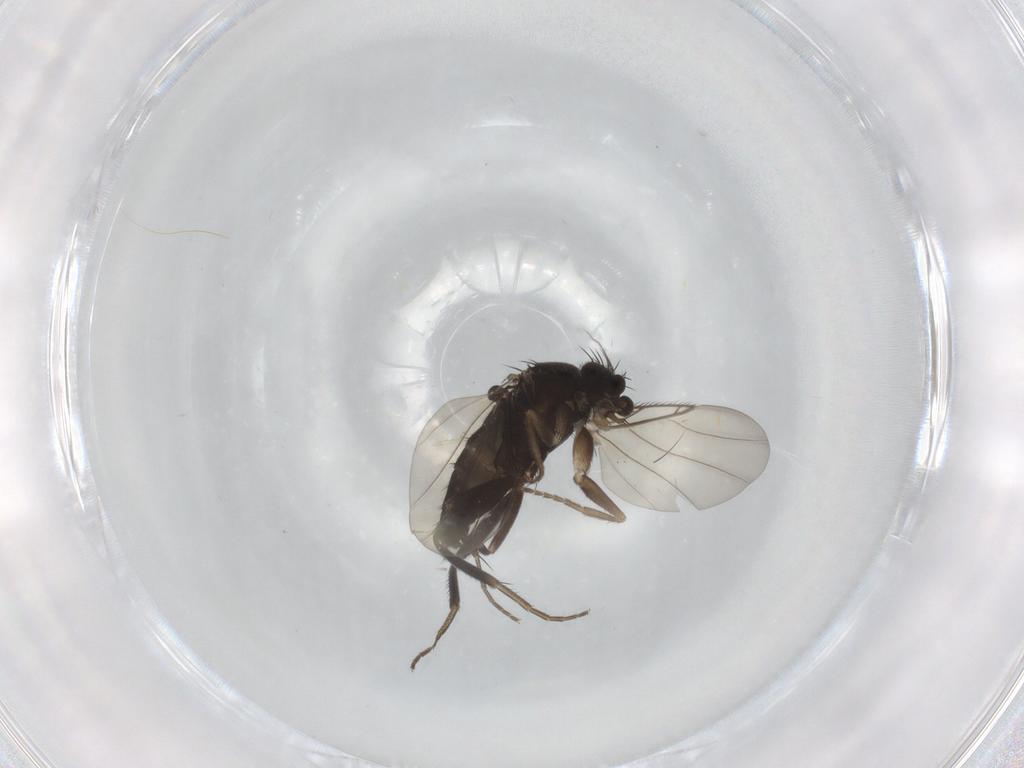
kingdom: Animalia
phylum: Arthropoda
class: Insecta
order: Diptera
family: Phoridae
